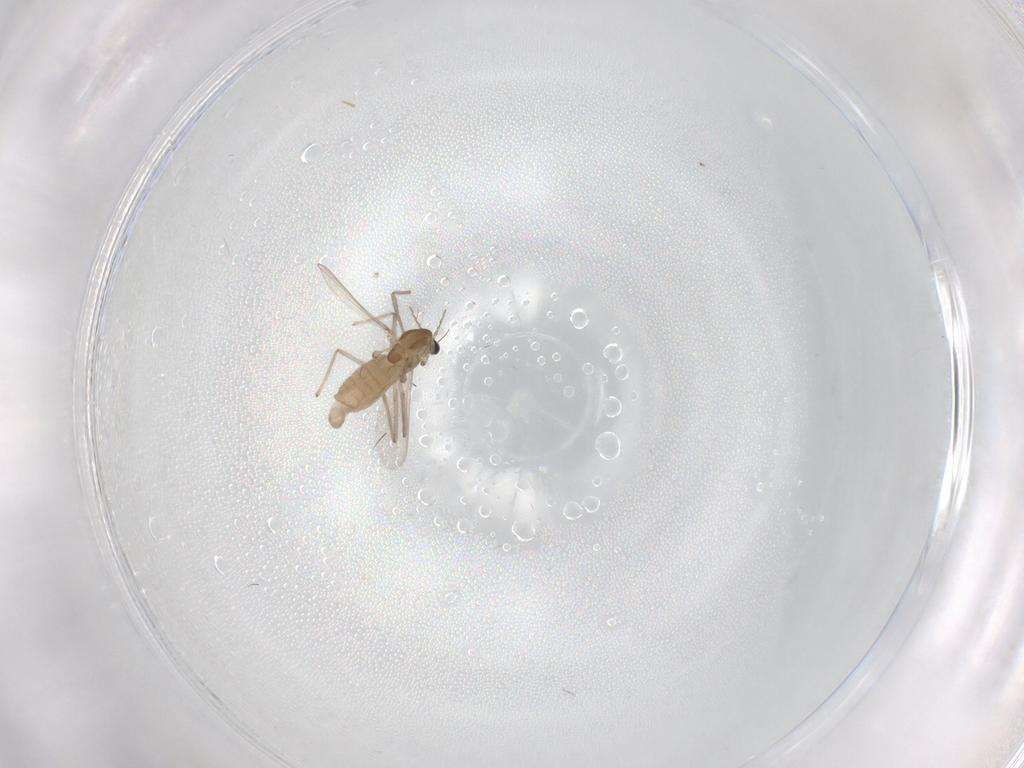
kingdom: Animalia
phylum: Arthropoda
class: Insecta
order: Diptera
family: Chironomidae
